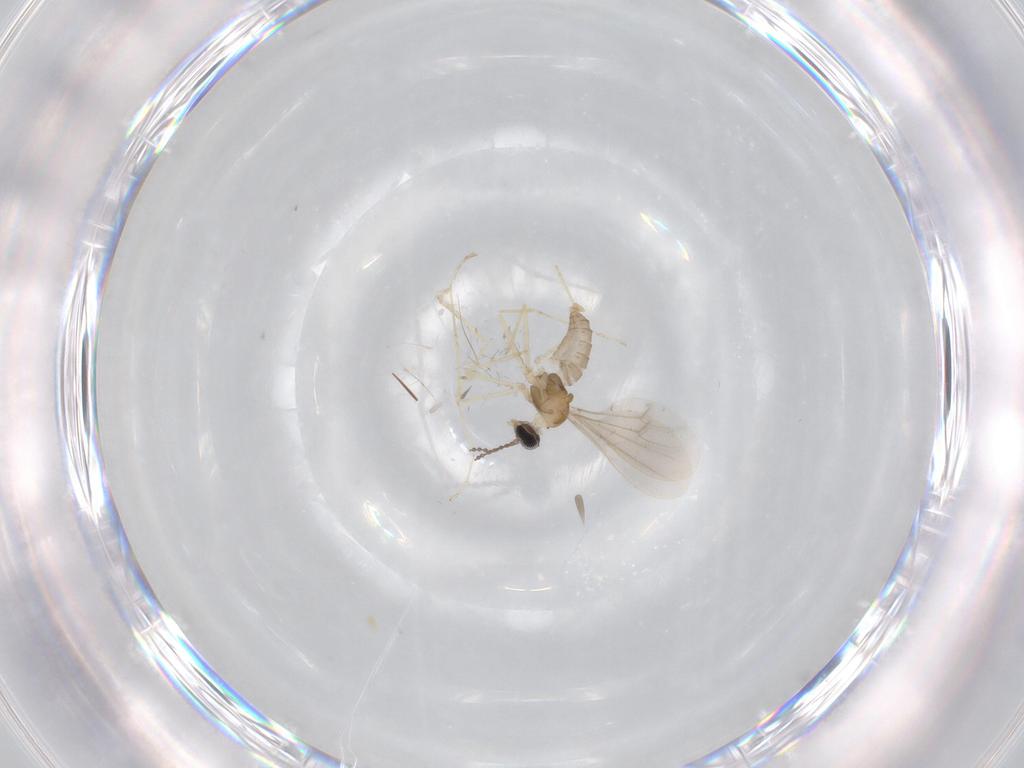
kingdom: Animalia
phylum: Arthropoda
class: Insecta
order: Diptera
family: Cecidomyiidae
